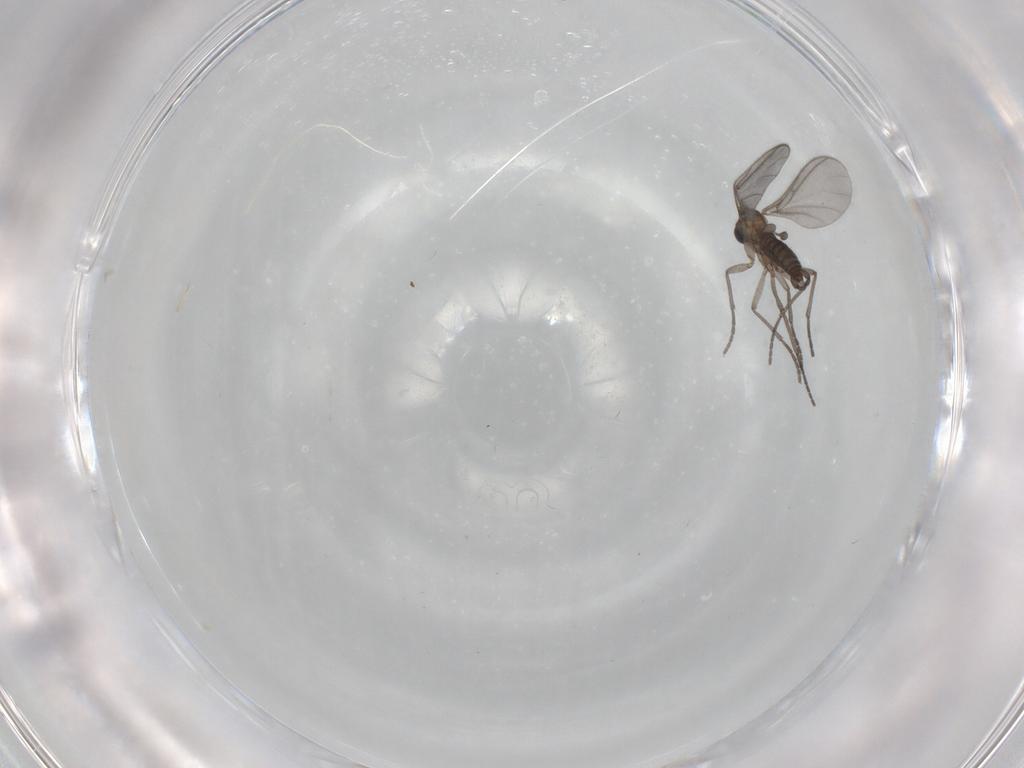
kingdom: Animalia
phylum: Arthropoda
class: Insecta
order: Diptera
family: Sciaridae
